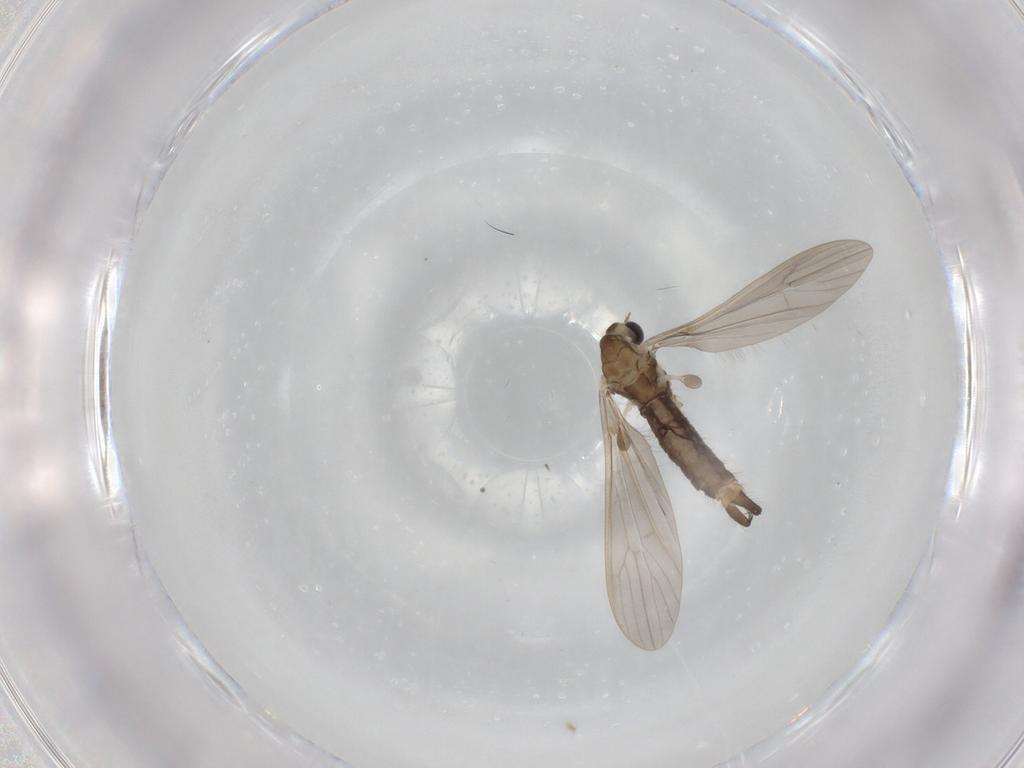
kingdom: Animalia
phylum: Arthropoda
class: Insecta
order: Diptera
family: Limoniidae
